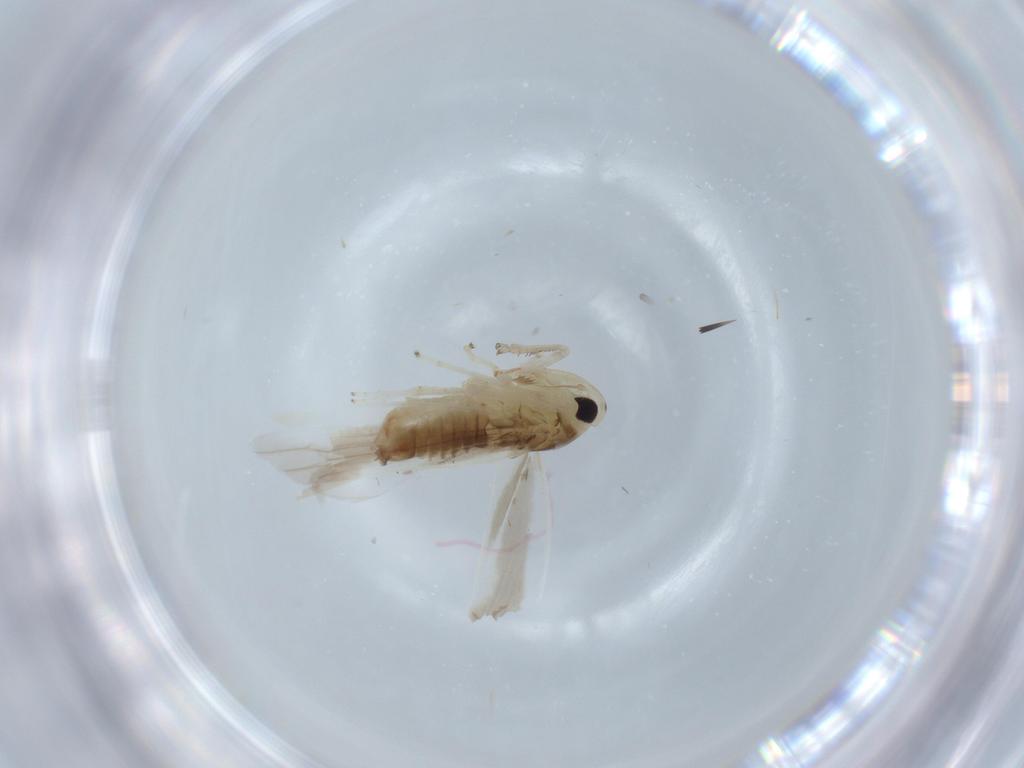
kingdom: Animalia
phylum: Arthropoda
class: Insecta
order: Hemiptera
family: Cicadellidae
